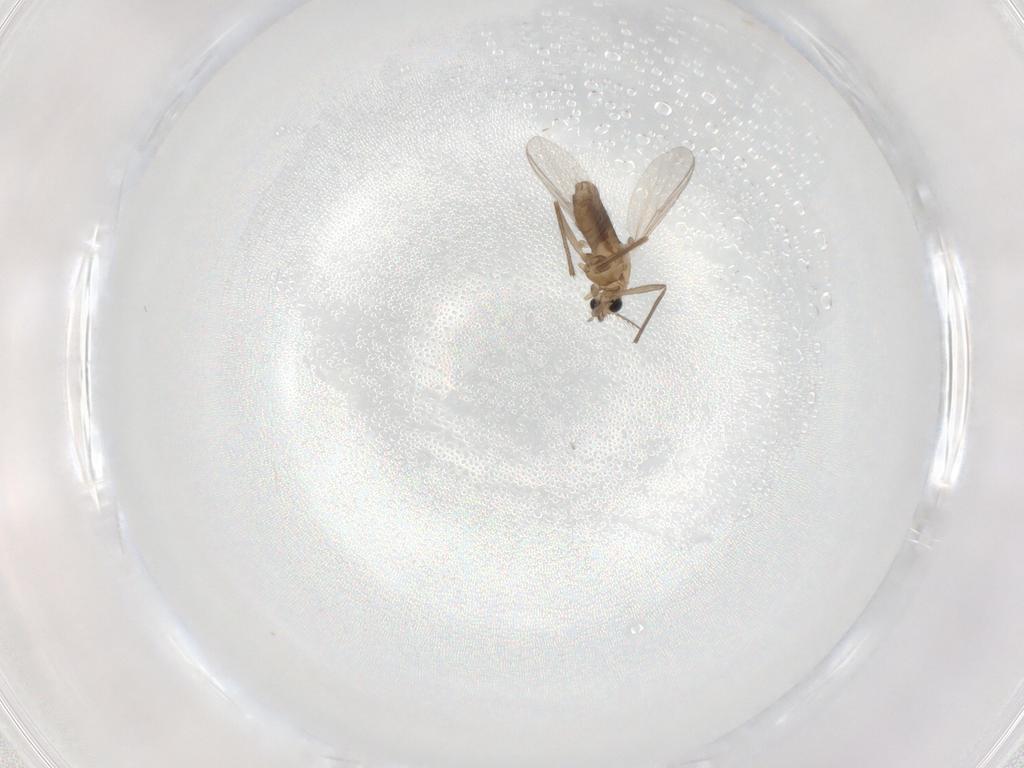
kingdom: Animalia
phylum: Arthropoda
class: Insecta
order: Diptera
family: Chironomidae
